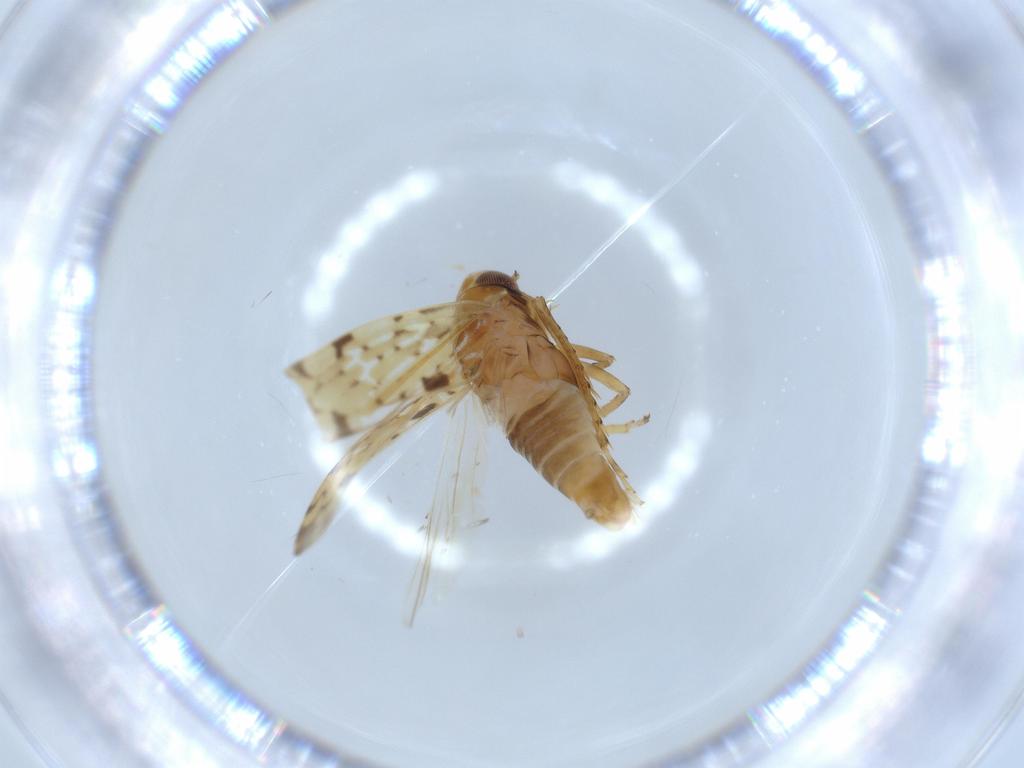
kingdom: Animalia
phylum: Arthropoda
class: Insecta
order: Hemiptera
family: Cicadellidae
